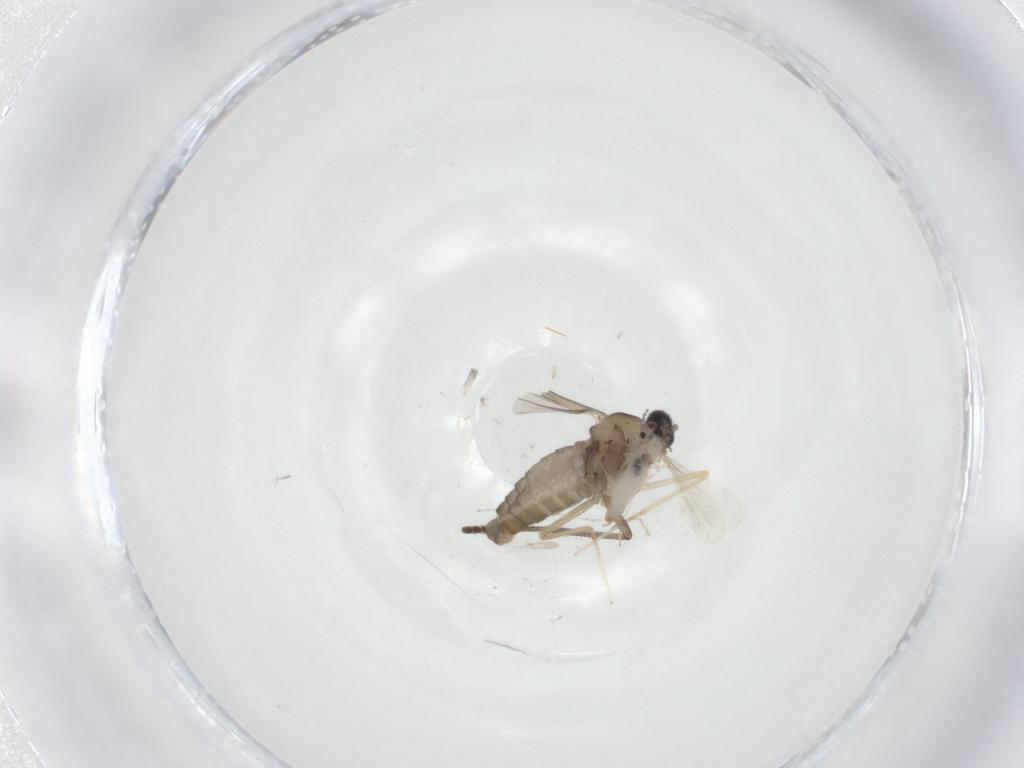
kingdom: Animalia
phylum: Arthropoda
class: Insecta
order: Diptera
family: Cecidomyiidae
